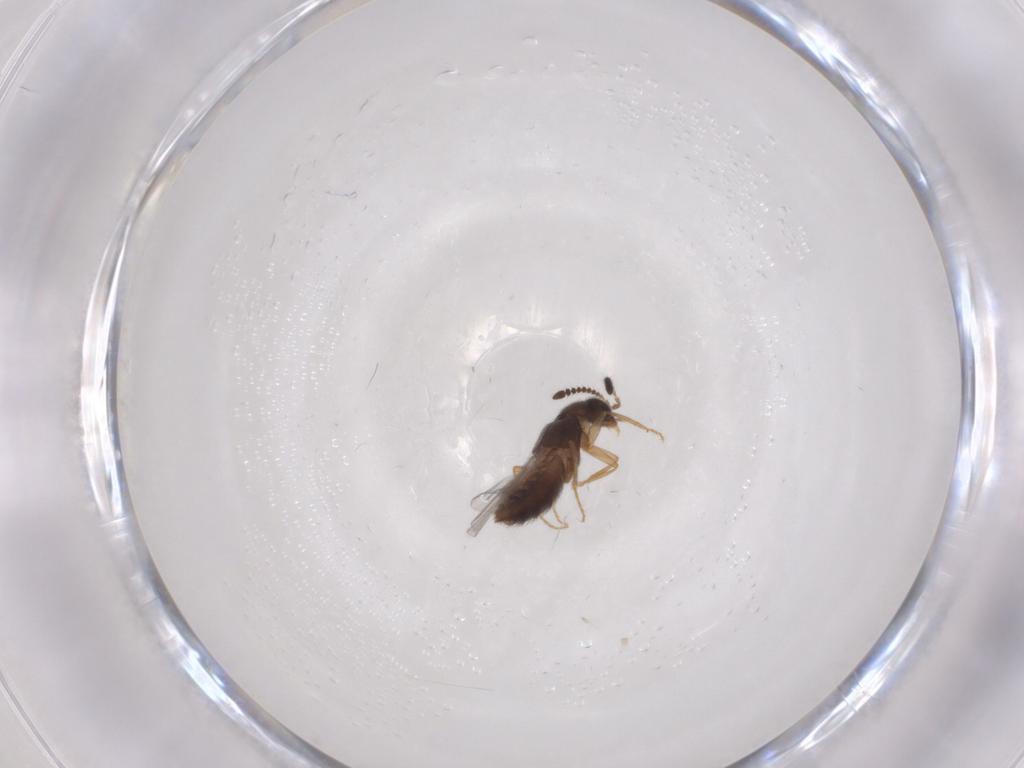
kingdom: Animalia
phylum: Arthropoda
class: Insecta
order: Coleoptera
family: Staphylinidae
